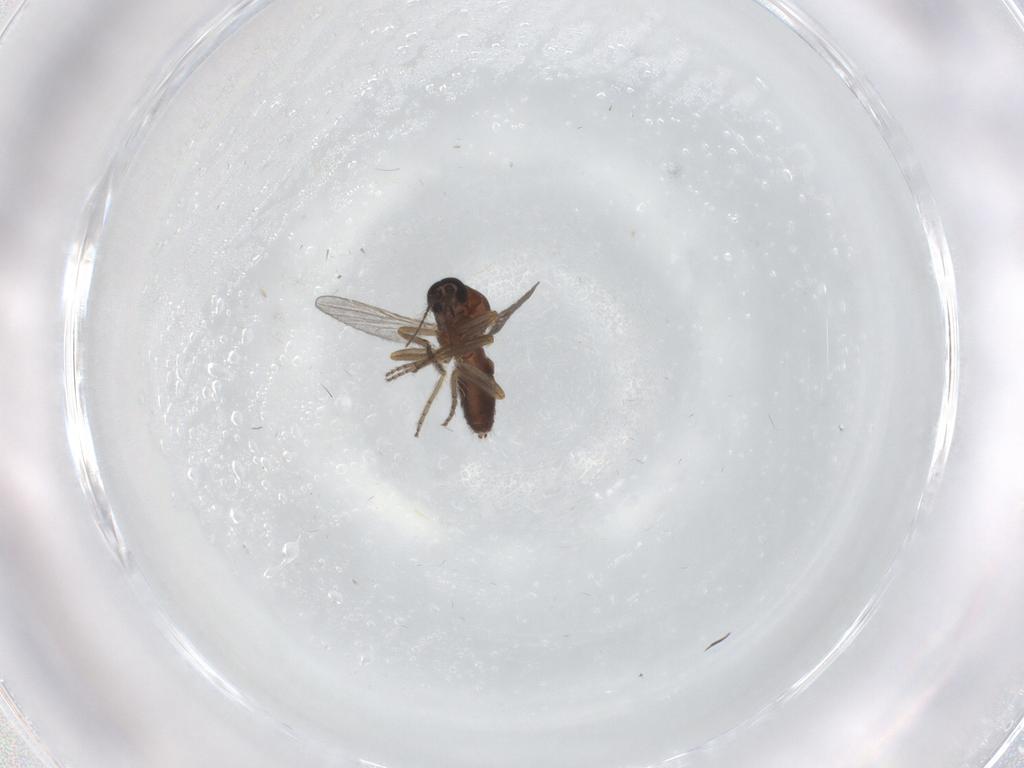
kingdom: Animalia
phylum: Arthropoda
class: Insecta
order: Diptera
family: Ceratopogonidae
